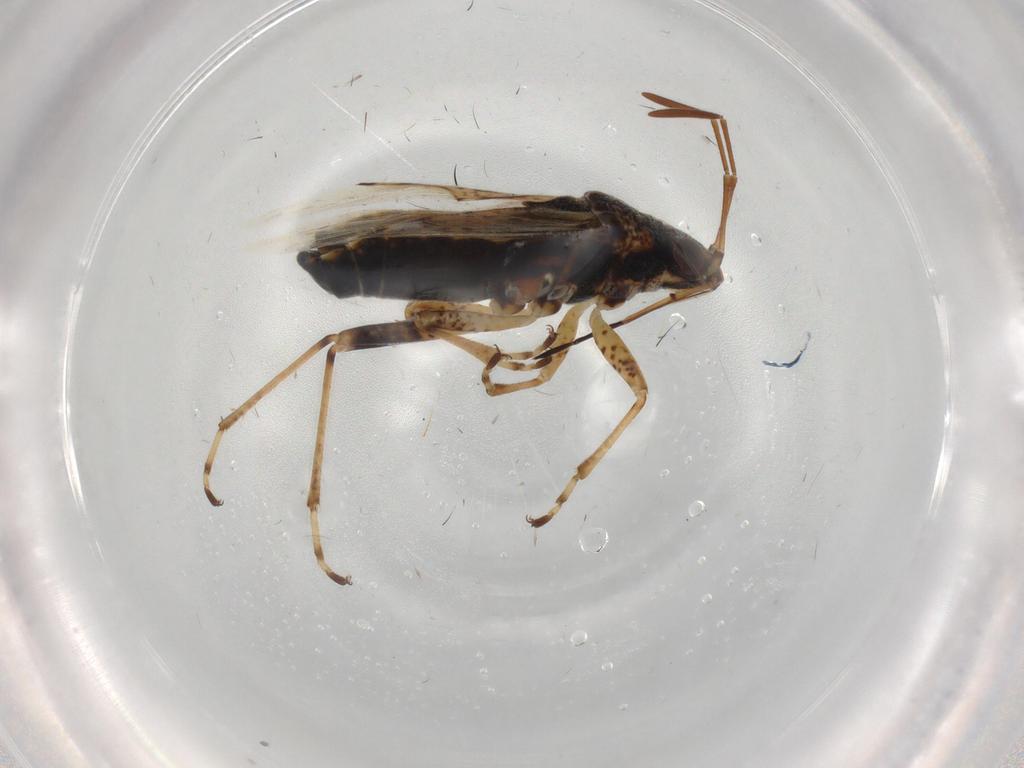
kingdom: Animalia
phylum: Arthropoda
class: Insecta
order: Hemiptera
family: Lygaeidae
